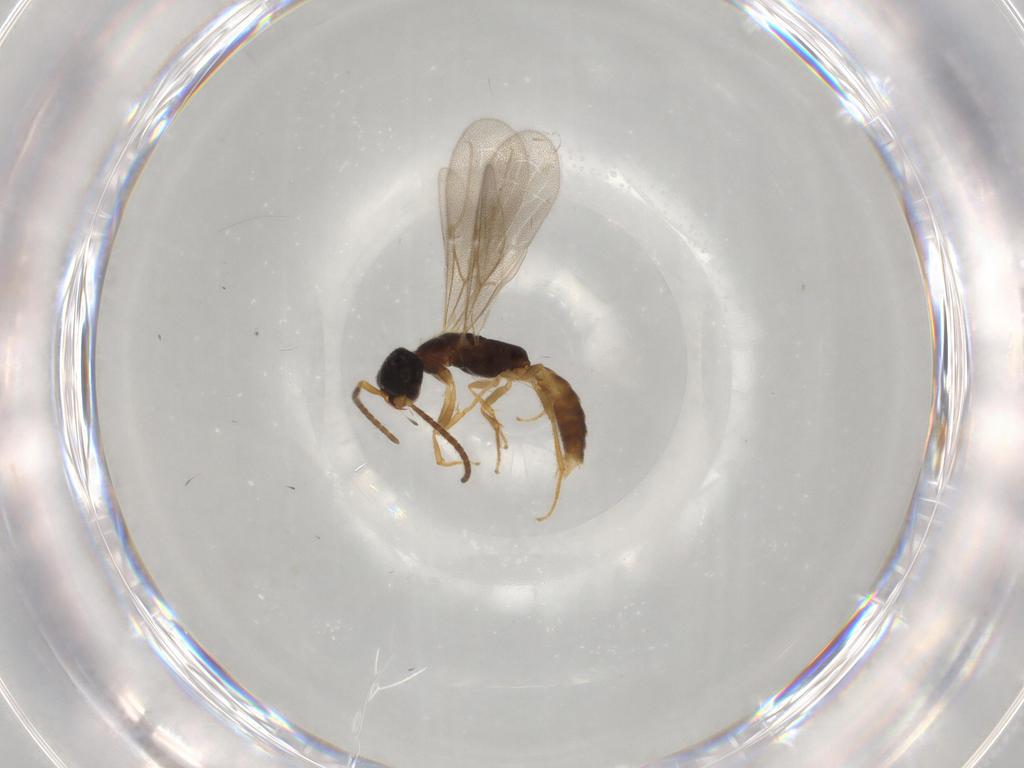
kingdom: Animalia
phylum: Arthropoda
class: Insecta
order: Hymenoptera
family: Bethylidae
